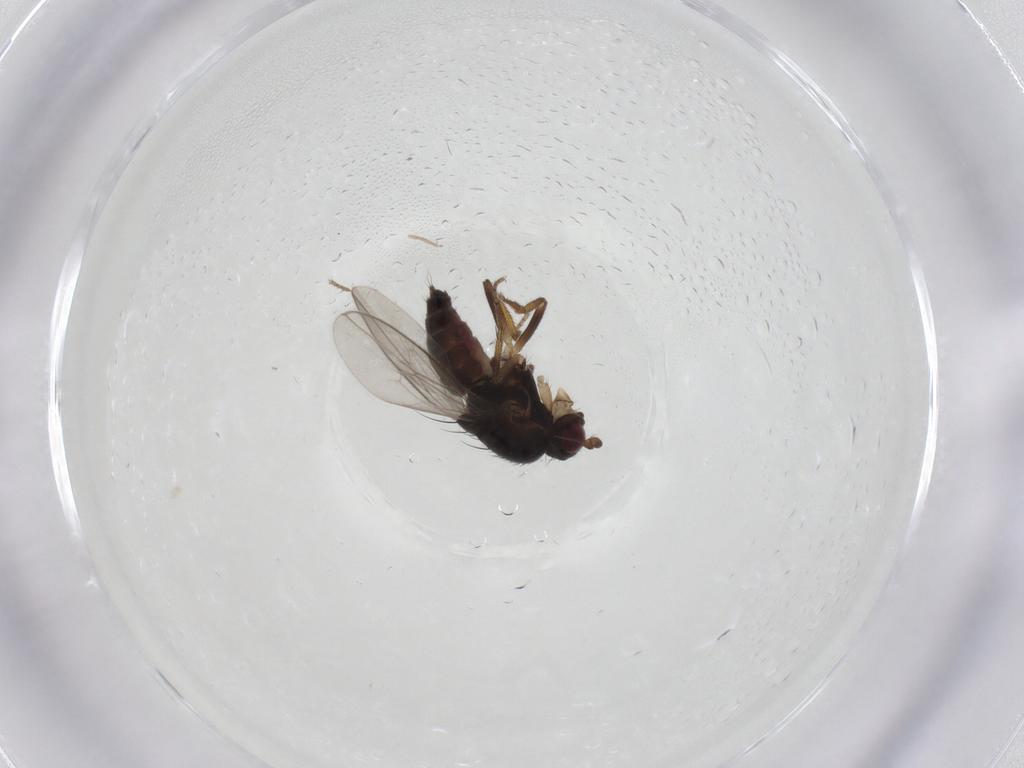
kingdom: Animalia
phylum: Arthropoda
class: Insecta
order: Diptera
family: Sphaeroceridae
